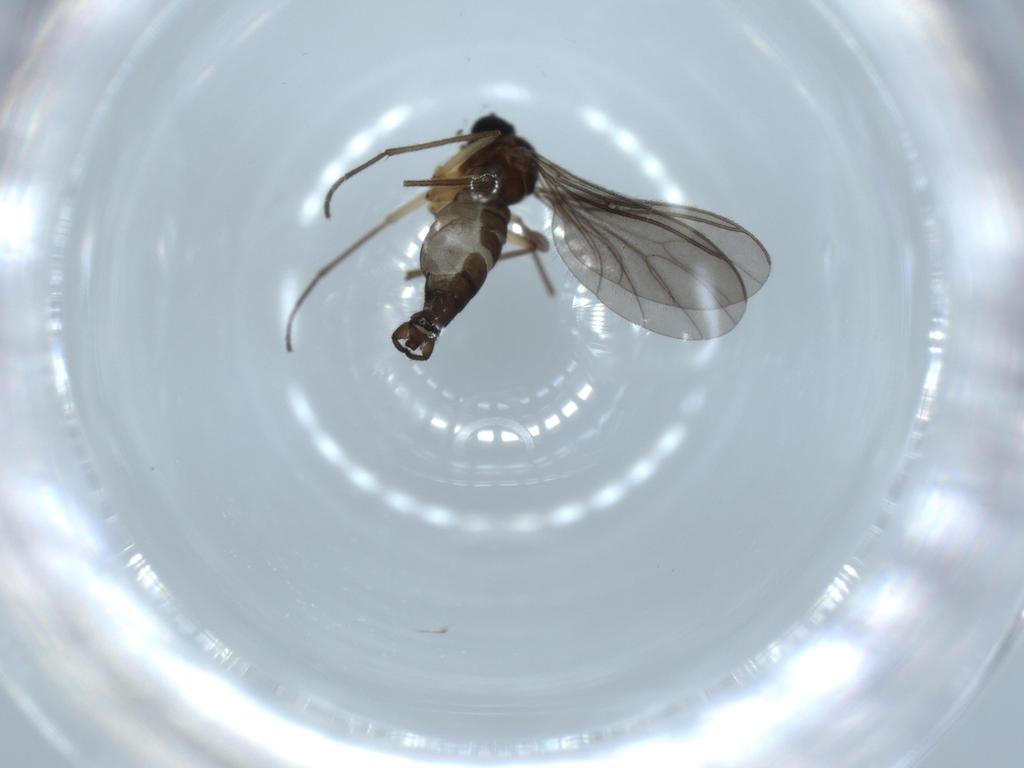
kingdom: Animalia
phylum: Arthropoda
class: Insecta
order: Diptera
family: Sciaridae
